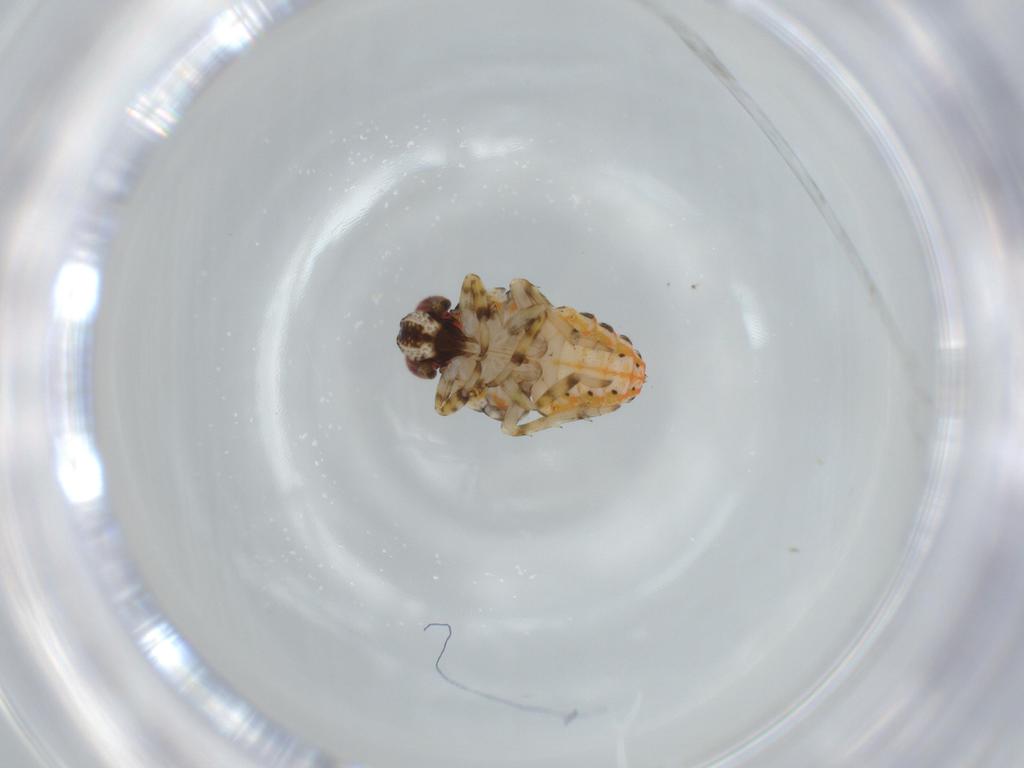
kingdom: Animalia
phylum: Arthropoda
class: Insecta
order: Hemiptera
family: Issidae
